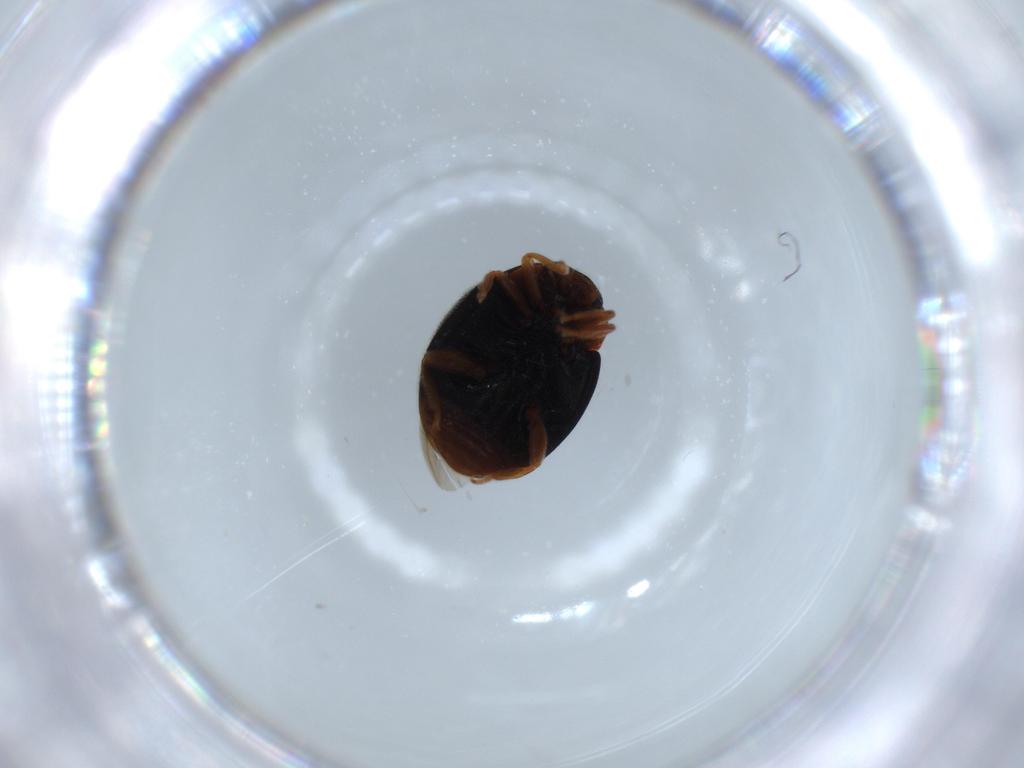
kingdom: Animalia
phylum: Arthropoda
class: Insecta
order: Coleoptera
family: Coccinellidae
